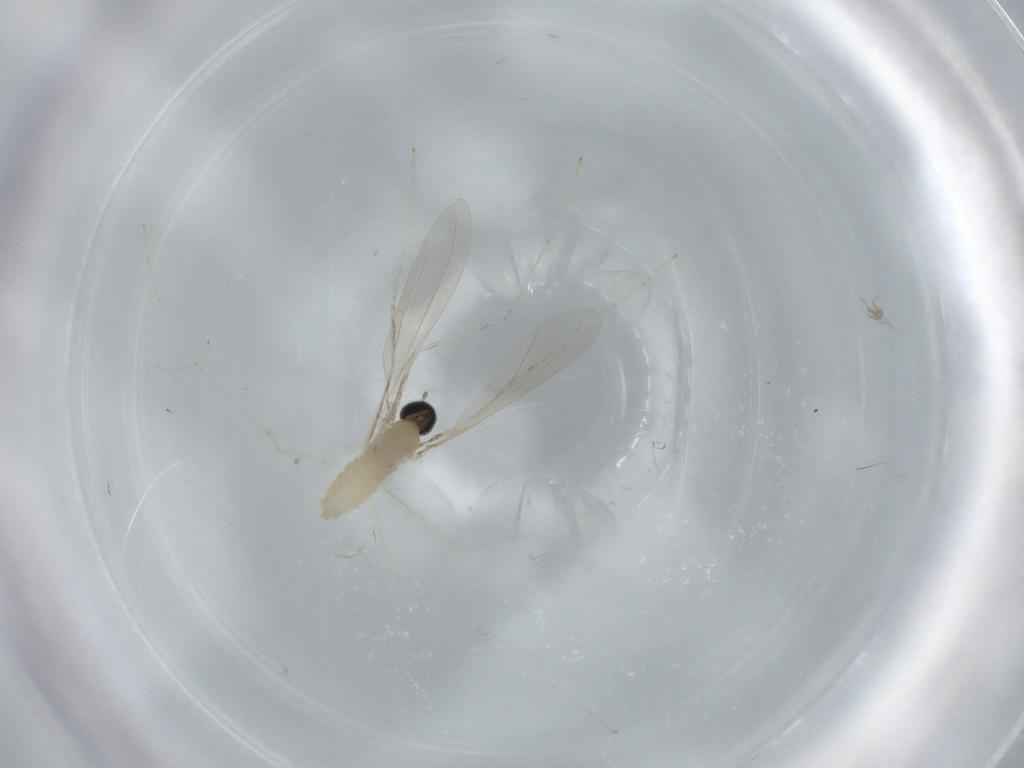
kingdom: Animalia
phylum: Arthropoda
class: Insecta
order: Diptera
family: Cecidomyiidae
